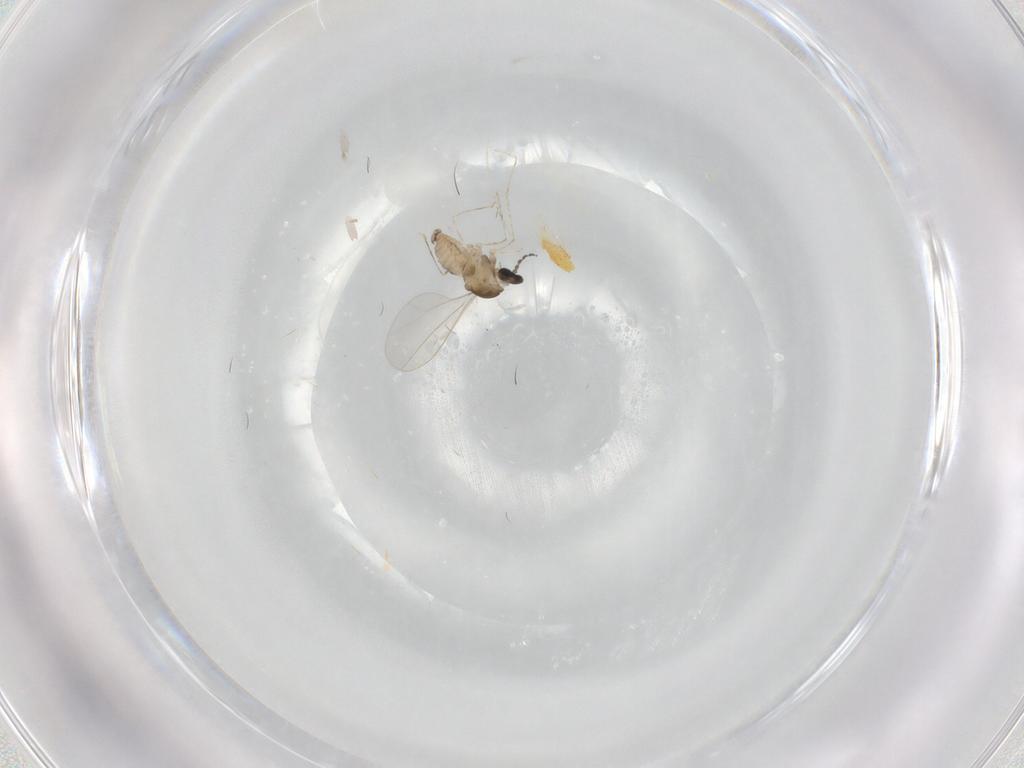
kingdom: Animalia
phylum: Arthropoda
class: Insecta
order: Diptera
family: Cecidomyiidae
